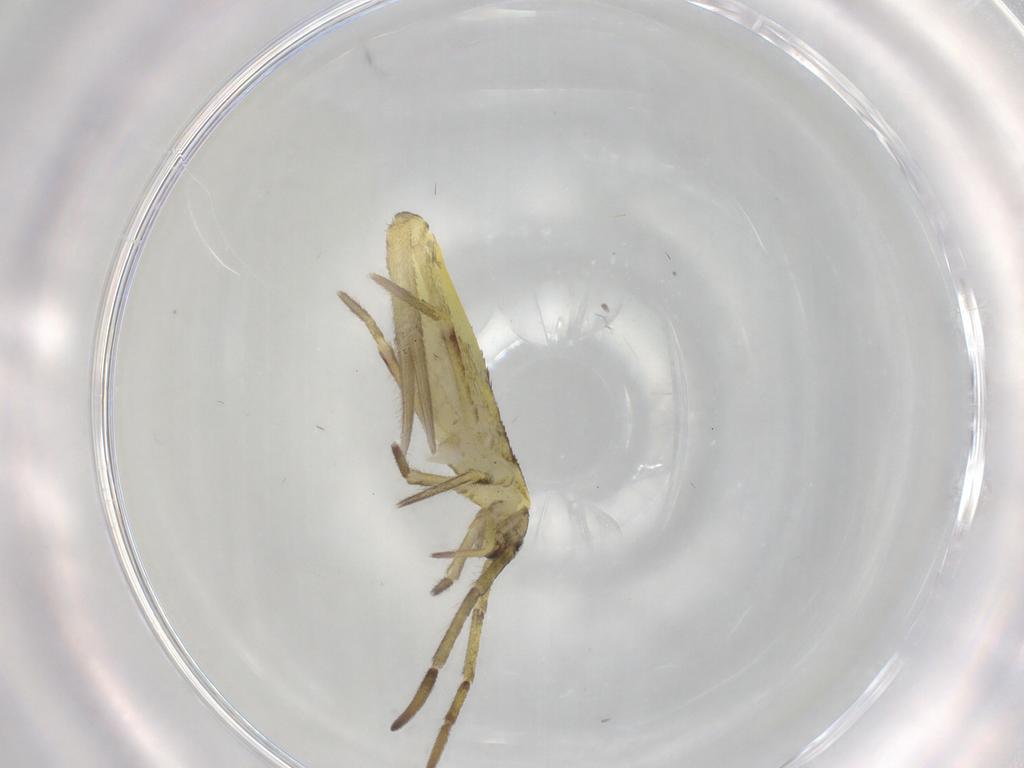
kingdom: Animalia
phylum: Arthropoda
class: Collembola
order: Entomobryomorpha
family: Entomobryidae
